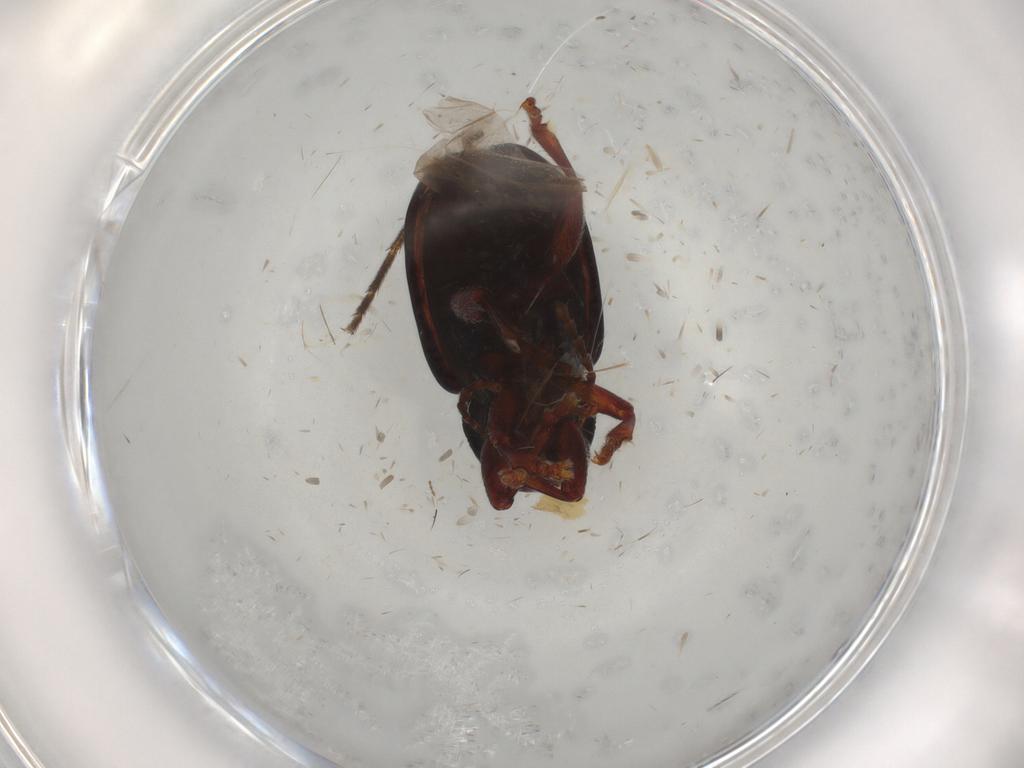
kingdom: Animalia
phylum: Arthropoda
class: Insecta
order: Coleoptera
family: Chrysomelidae
